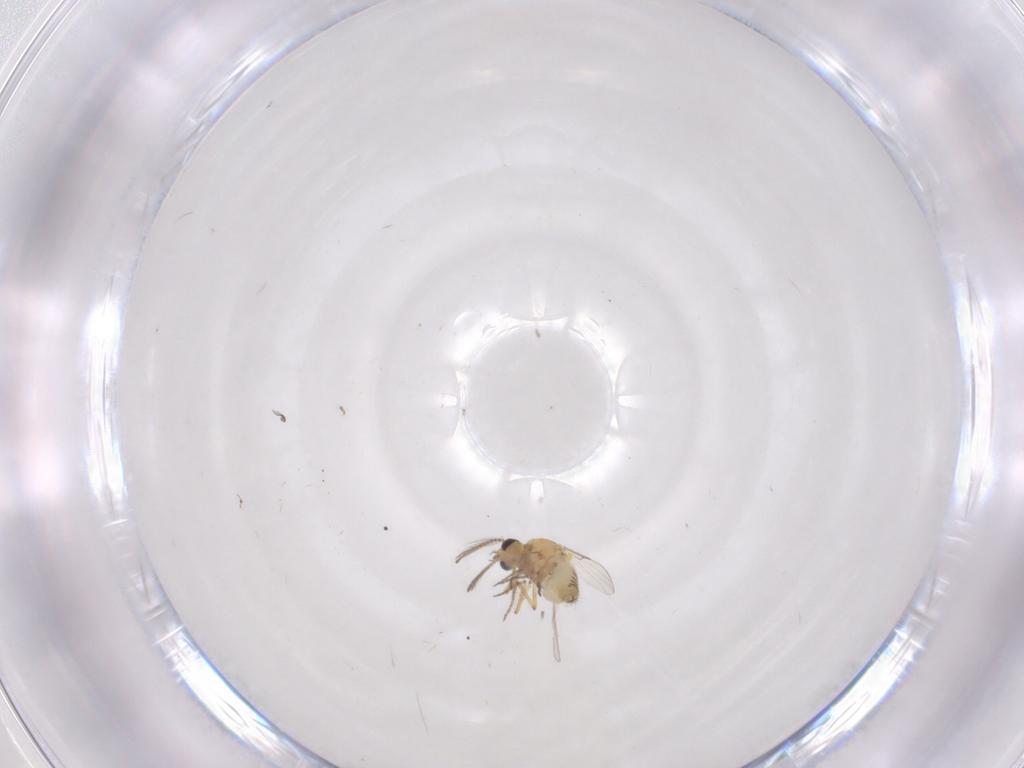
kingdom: Animalia
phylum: Arthropoda
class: Insecta
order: Diptera
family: Ceratopogonidae
